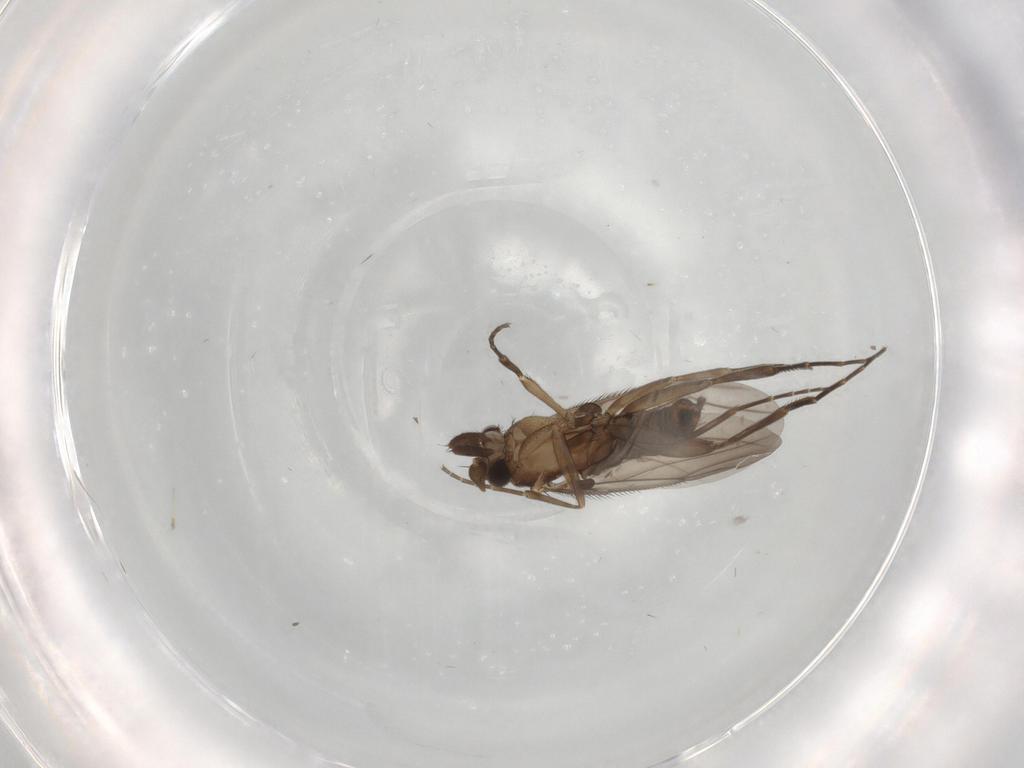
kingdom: Animalia
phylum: Arthropoda
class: Insecta
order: Diptera
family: Phoridae
